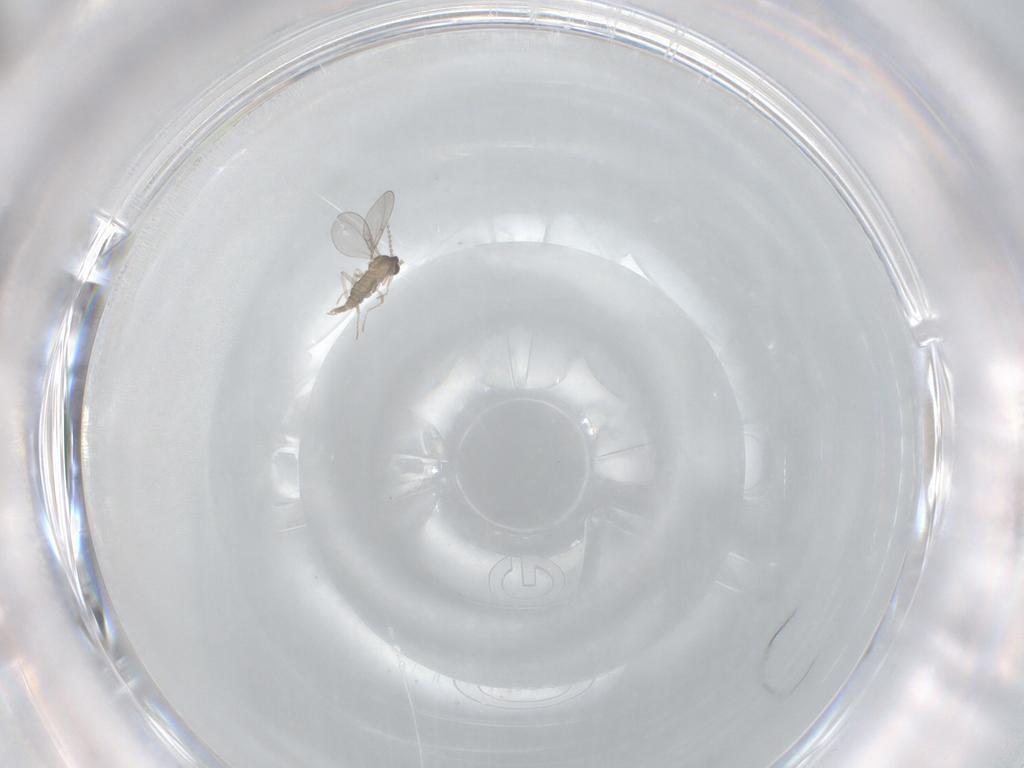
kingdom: Animalia
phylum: Arthropoda
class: Insecta
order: Diptera
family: Cecidomyiidae
